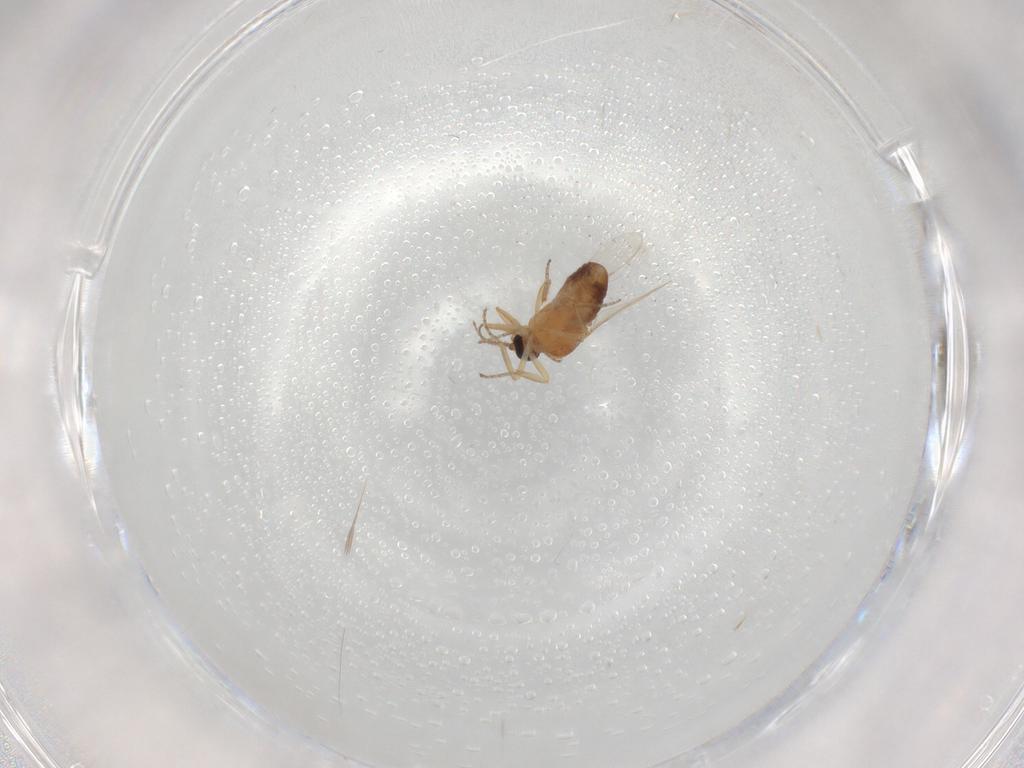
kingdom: Animalia
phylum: Arthropoda
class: Insecta
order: Diptera
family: Ceratopogonidae
